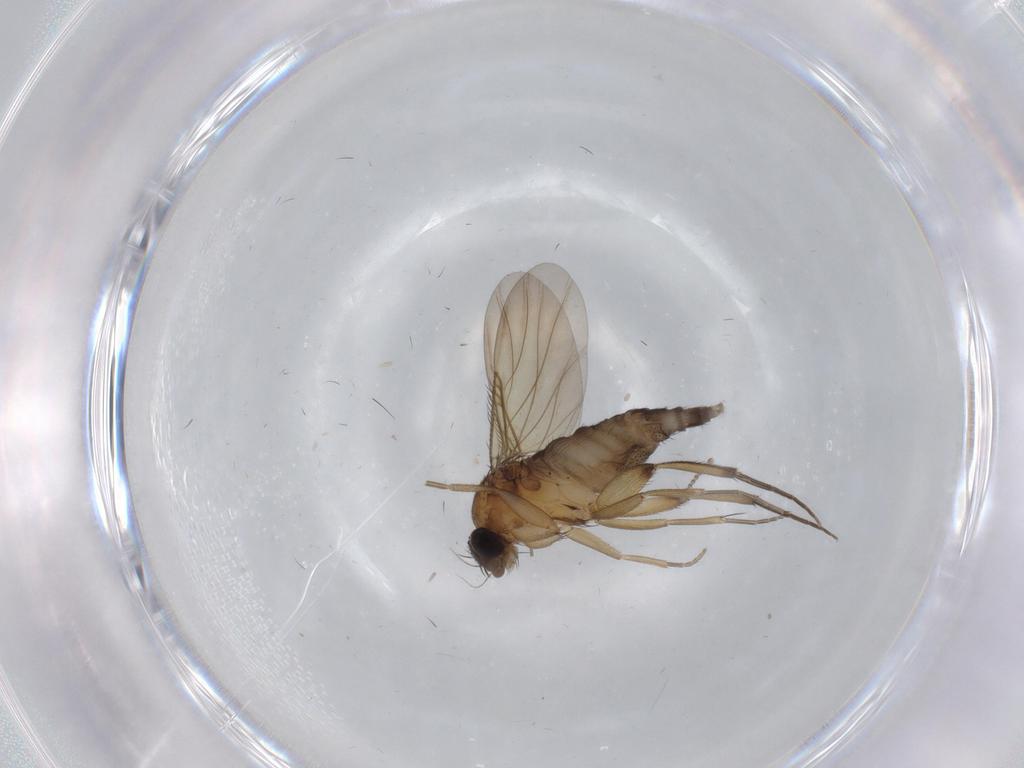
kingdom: Animalia
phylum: Arthropoda
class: Insecta
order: Diptera
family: Phoridae
